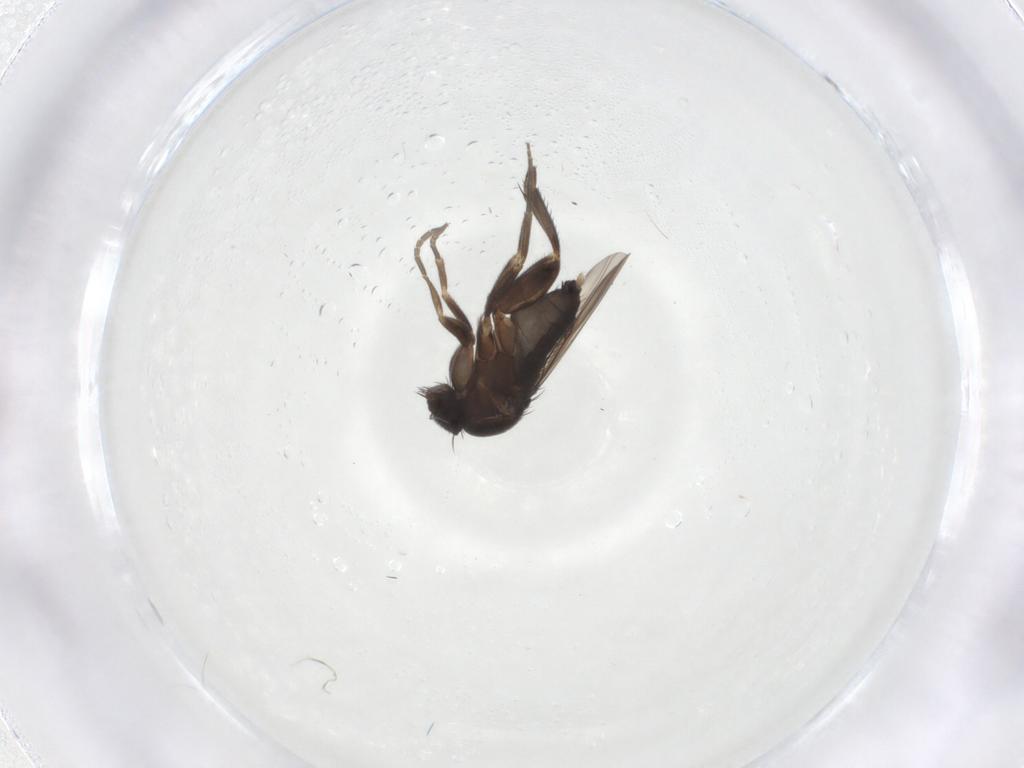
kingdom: Animalia
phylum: Arthropoda
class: Insecta
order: Diptera
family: Phoridae
